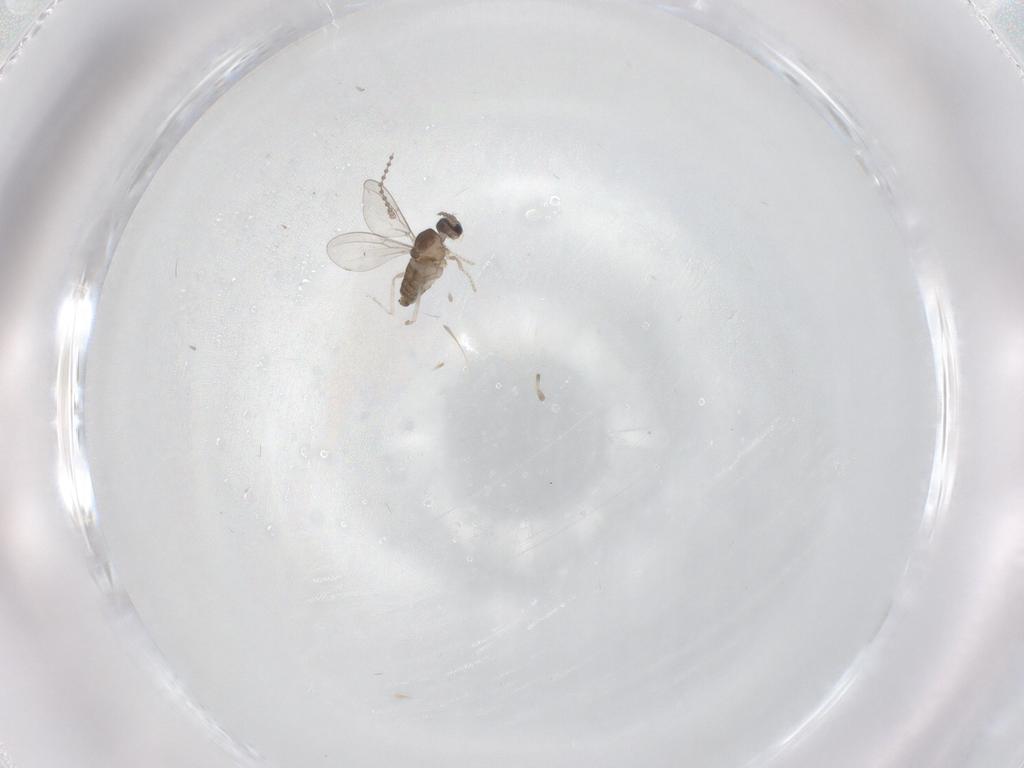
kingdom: Animalia
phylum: Arthropoda
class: Insecta
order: Diptera
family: Cecidomyiidae
